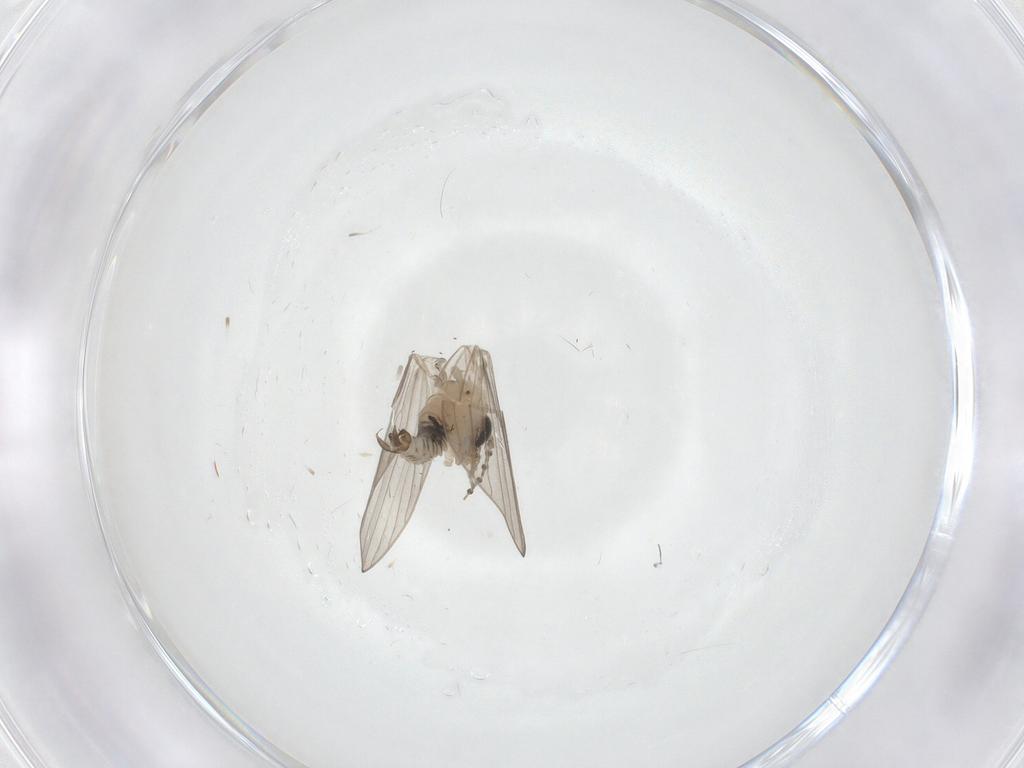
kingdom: Animalia
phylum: Arthropoda
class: Insecta
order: Diptera
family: Psychodidae
